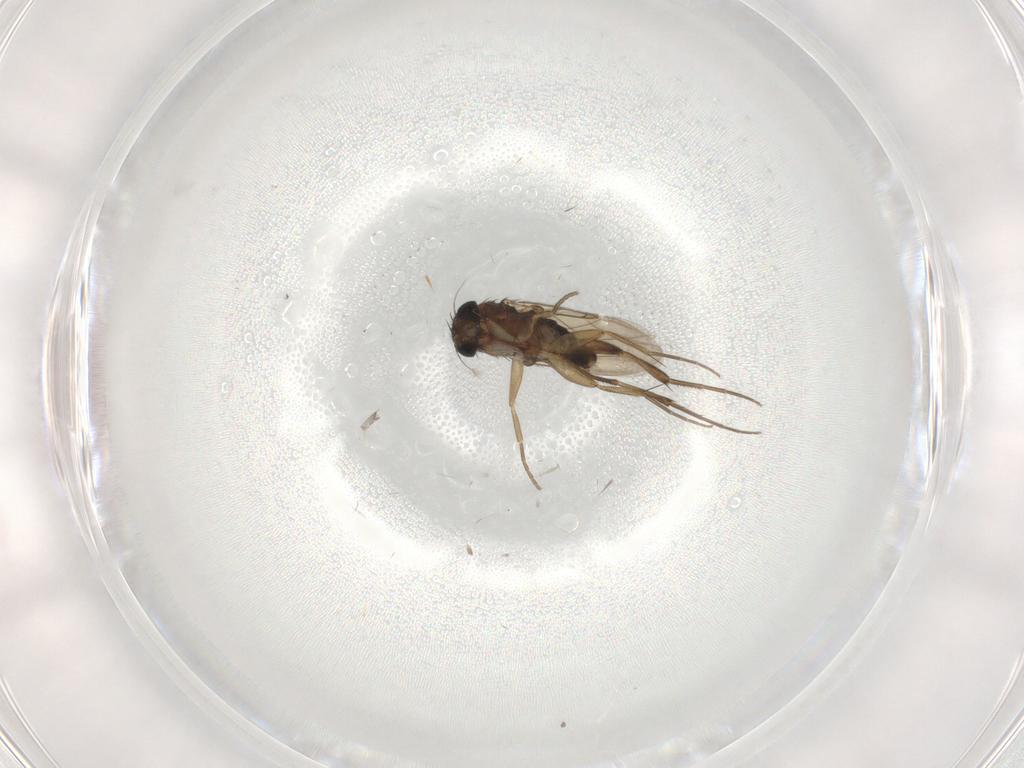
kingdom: Animalia
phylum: Arthropoda
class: Insecta
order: Diptera
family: Phoridae
